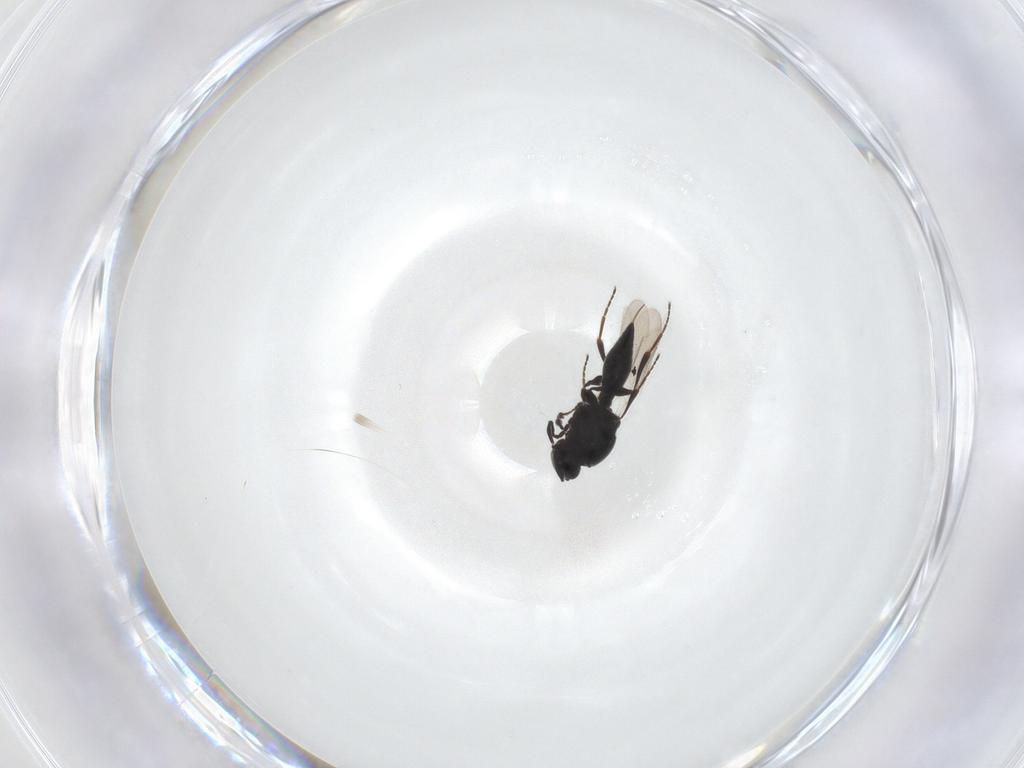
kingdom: Animalia
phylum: Arthropoda
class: Insecta
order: Hymenoptera
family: Platygastridae
